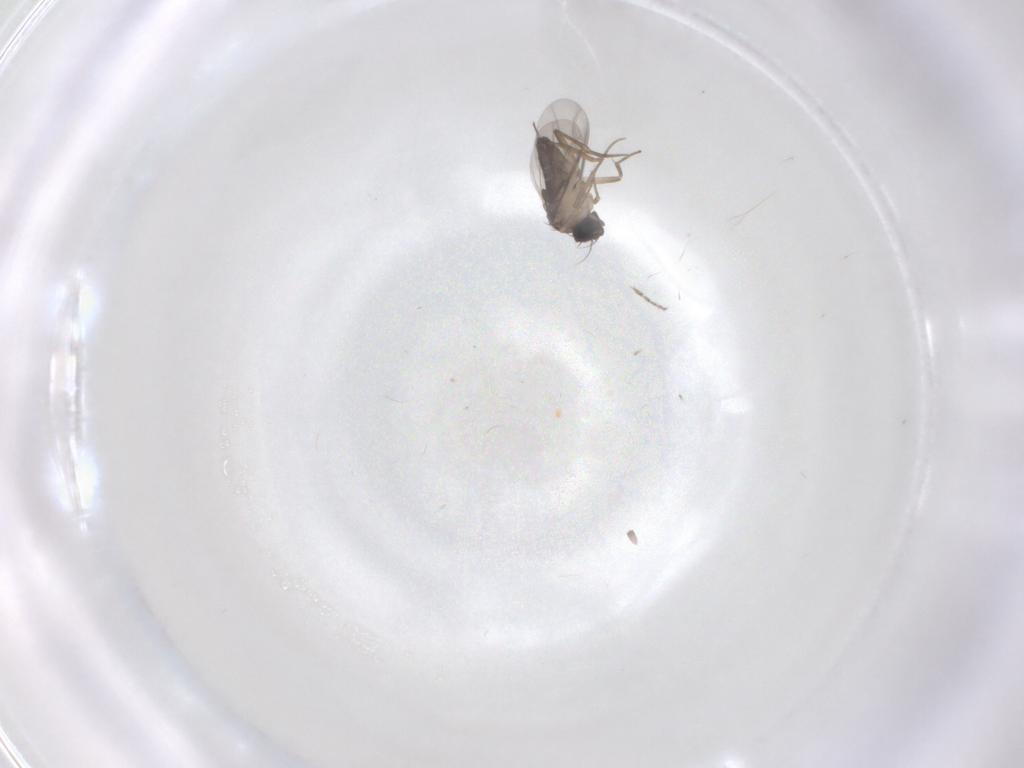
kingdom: Animalia
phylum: Arthropoda
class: Insecta
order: Diptera
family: Phoridae
